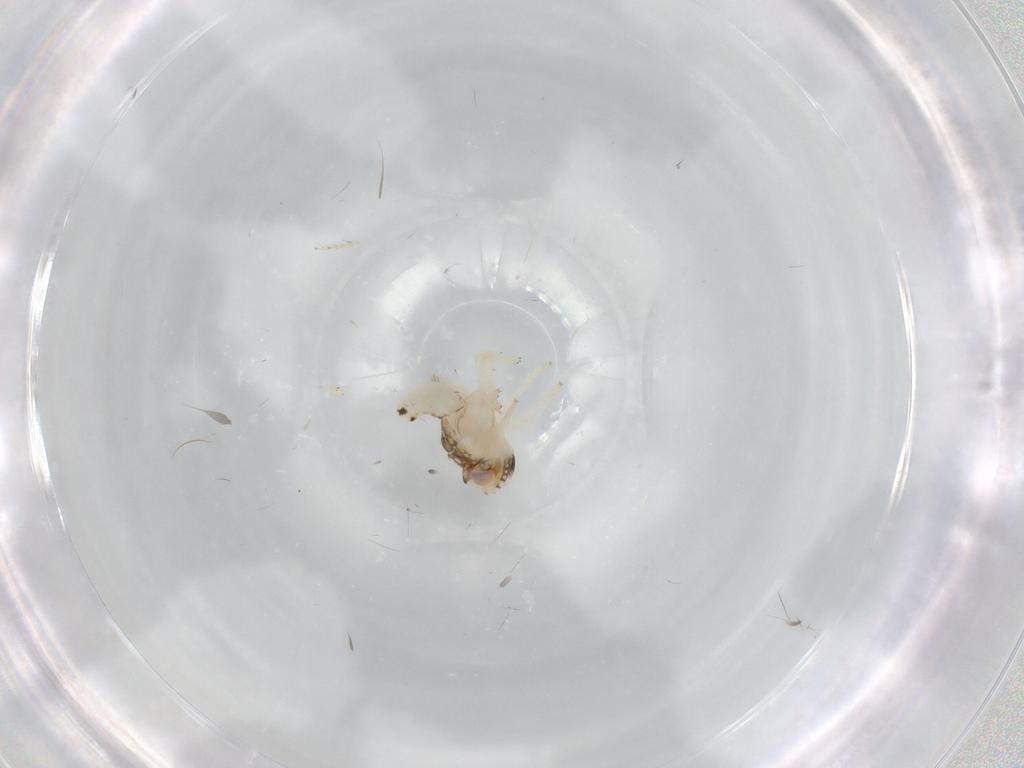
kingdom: Animalia
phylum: Arthropoda
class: Insecta
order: Hemiptera
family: Nogodinidae
